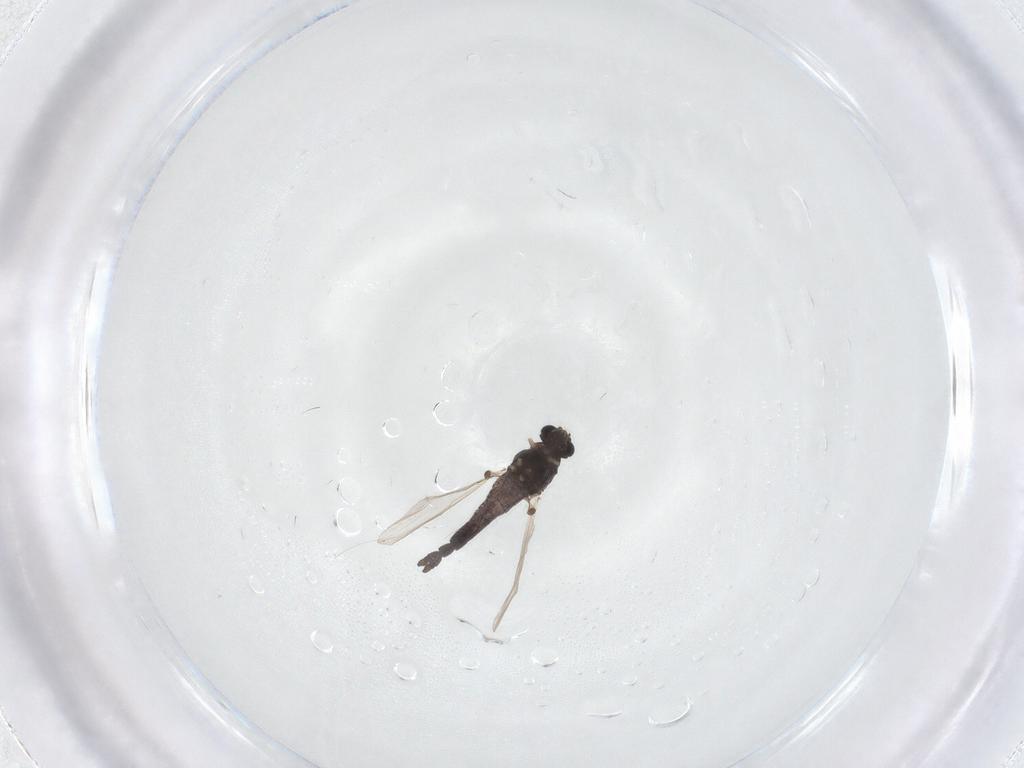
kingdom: Animalia
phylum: Arthropoda
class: Insecta
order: Diptera
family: Chironomidae
